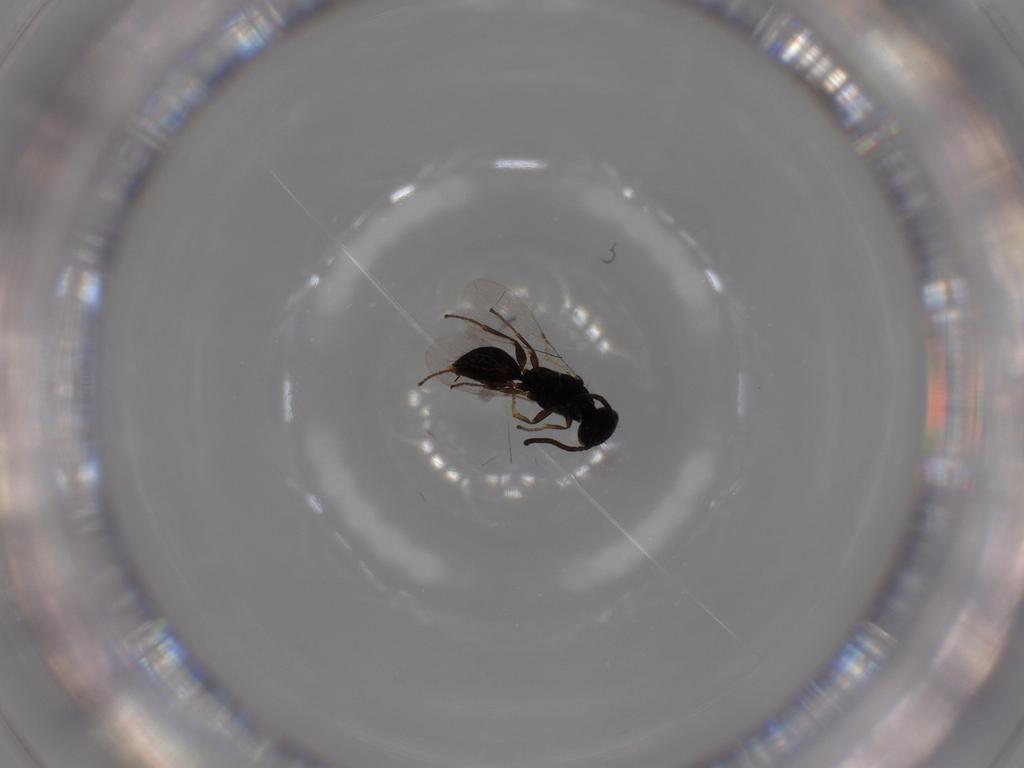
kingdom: Animalia
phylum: Arthropoda
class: Insecta
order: Hymenoptera
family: Bethylidae
